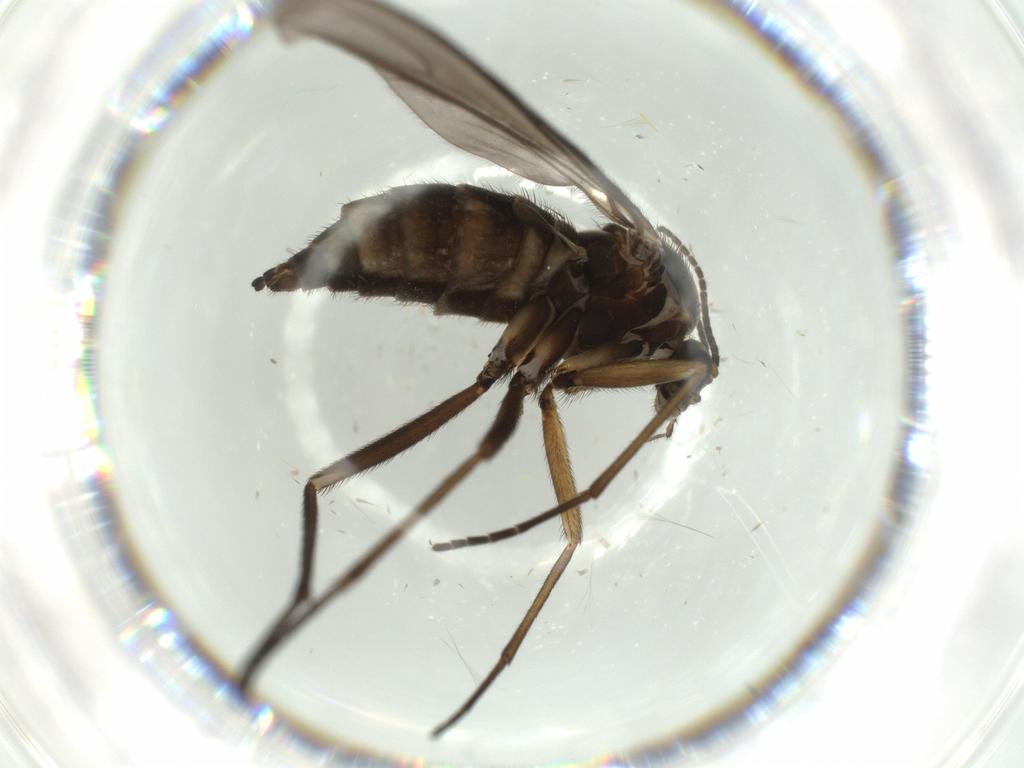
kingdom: Animalia
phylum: Arthropoda
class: Insecta
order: Diptera
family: Sciaridae
